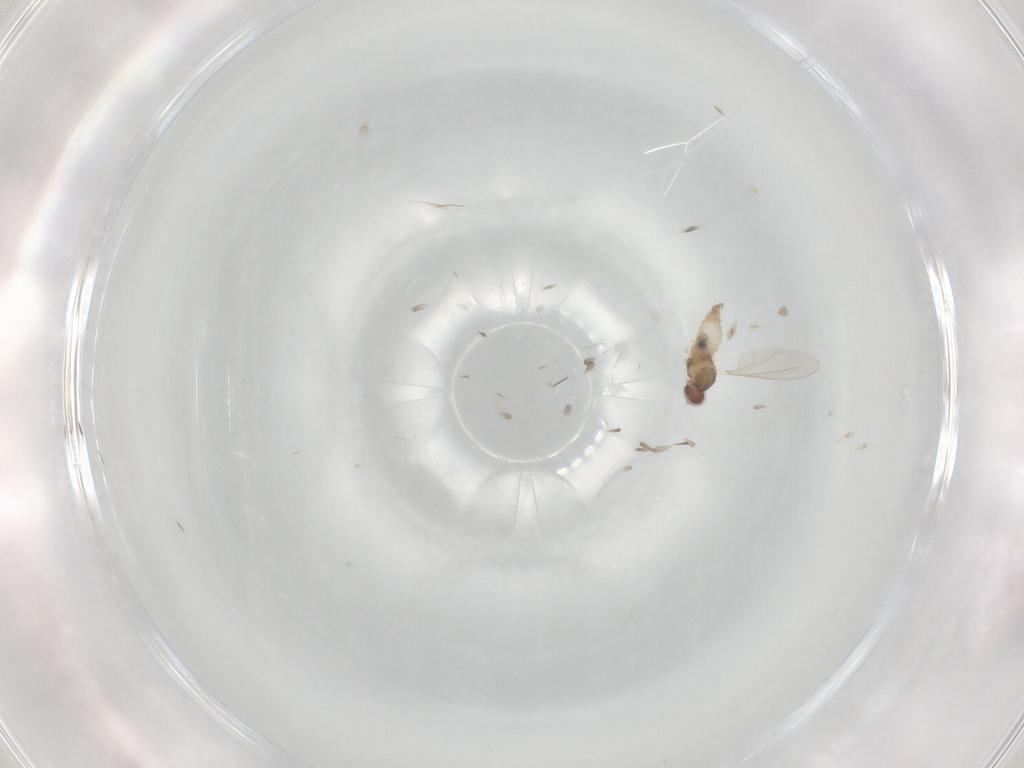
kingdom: Animalia
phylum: Arthropoda
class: Insecta
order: Diptera
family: Cecidomyiidae
